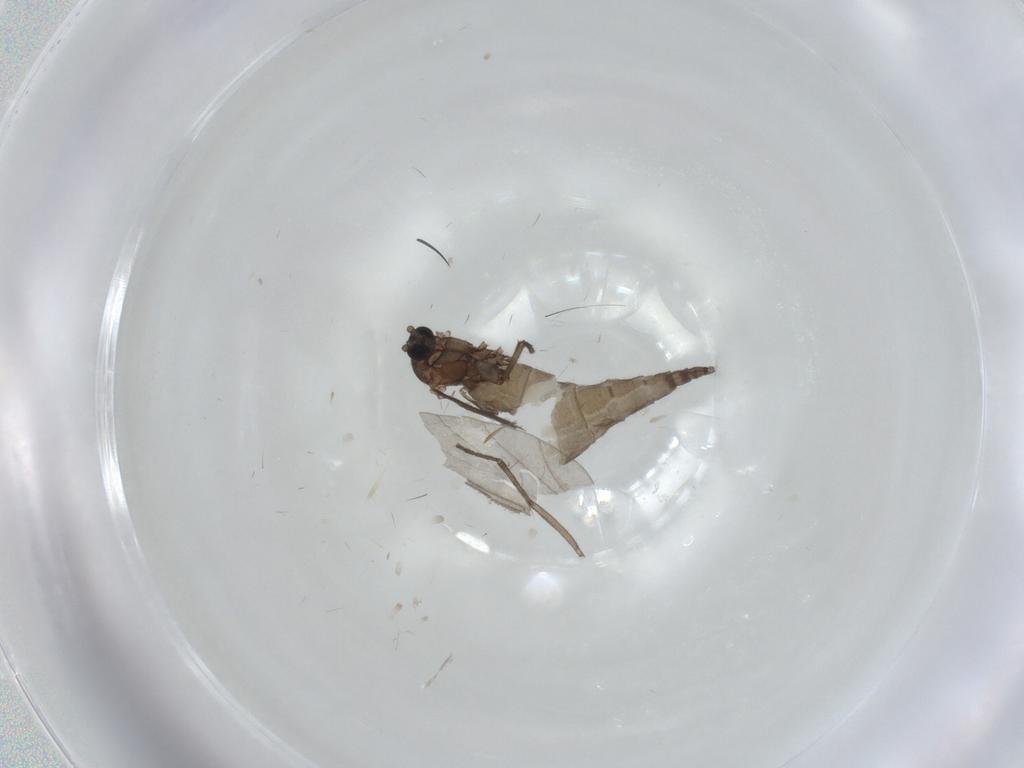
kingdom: Animalia
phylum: Arthropoda
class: Insecta
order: Diptera
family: Sciaridae
